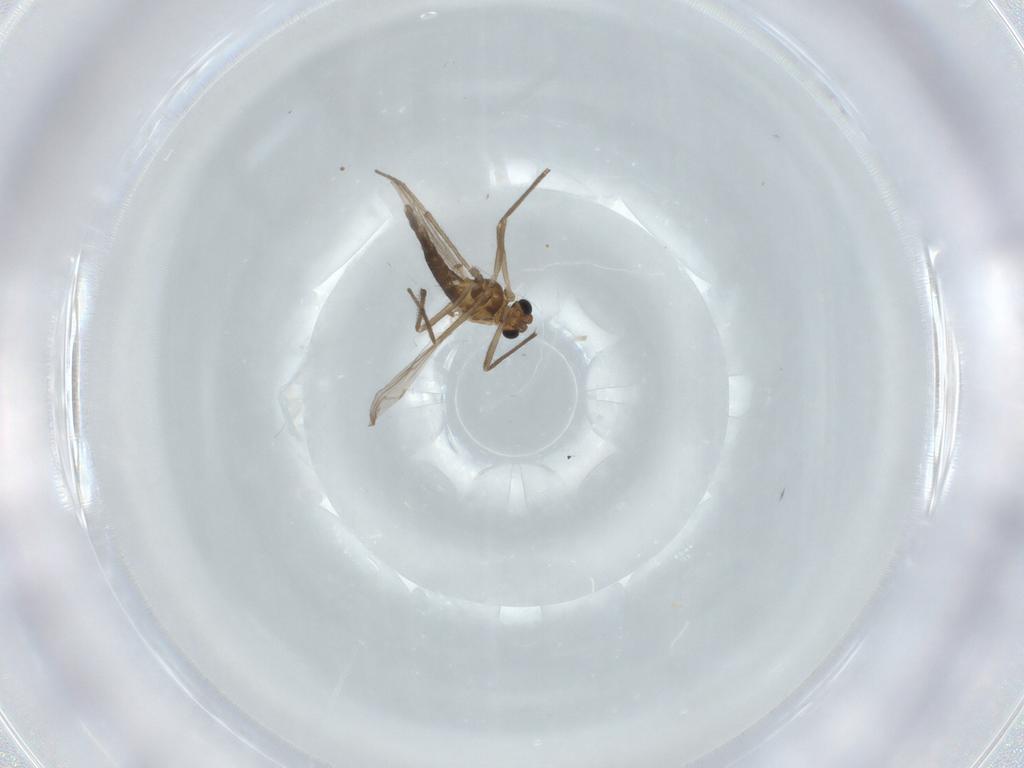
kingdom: Animalia
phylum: Arthropoda
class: Insecta
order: Diptera
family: Chironomidae
